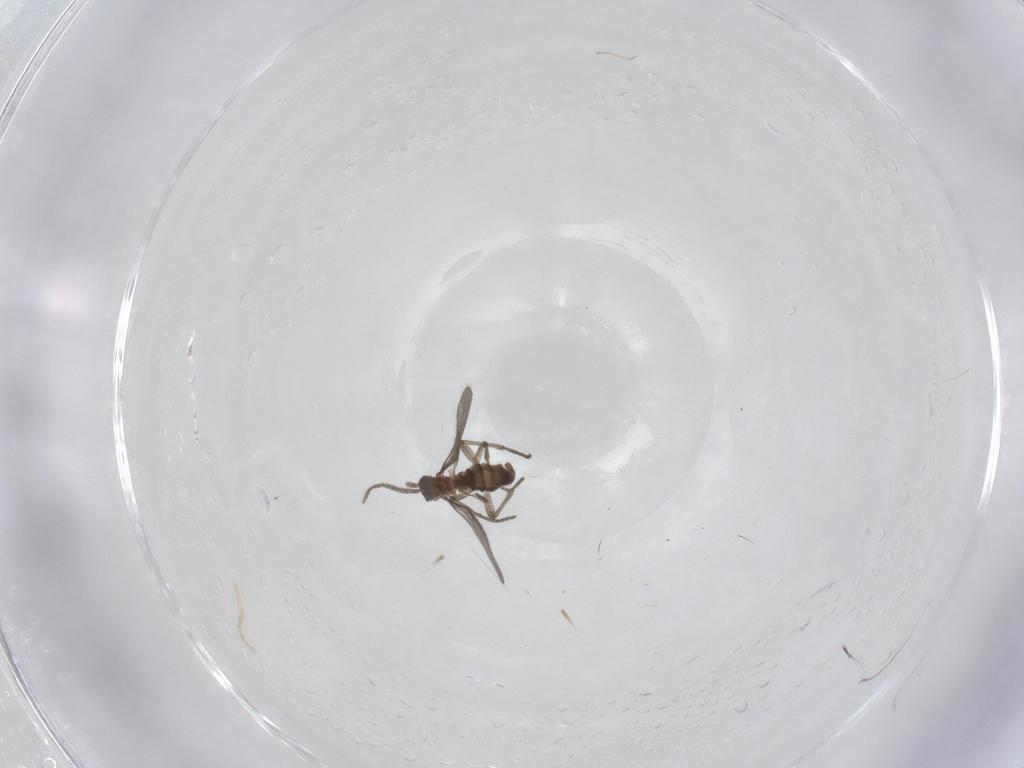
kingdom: Animalia
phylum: Arthropoda
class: Insecta
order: Diptera
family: Sciaridae
